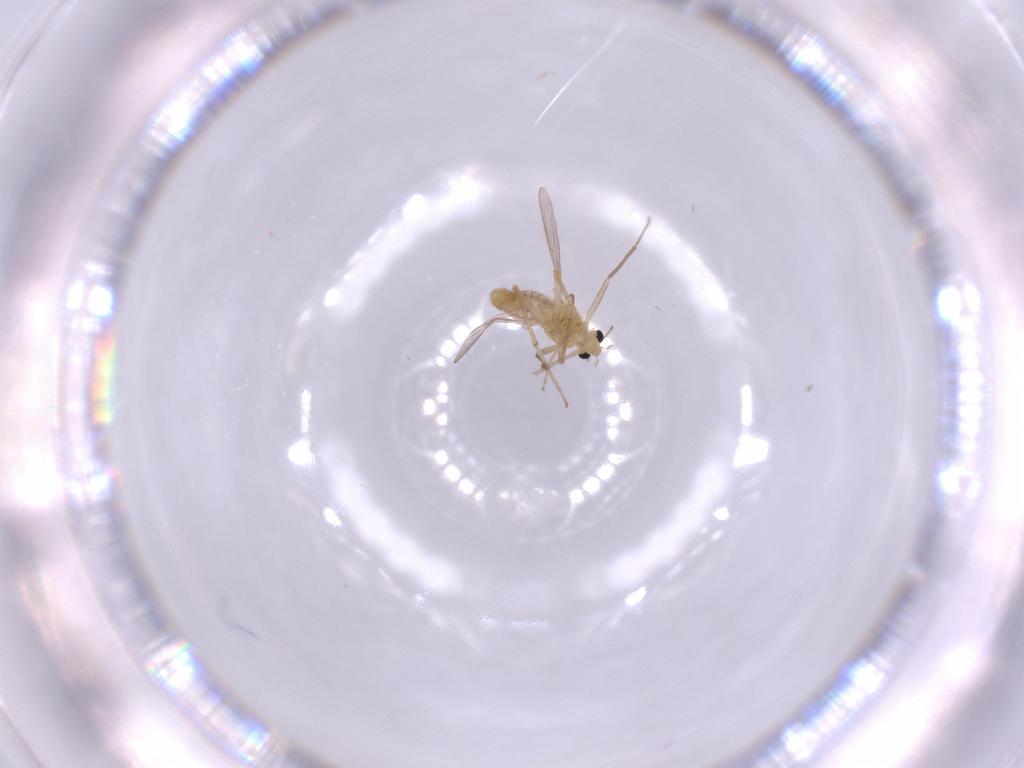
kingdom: Animalia
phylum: Arthropoda
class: Insecta
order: Diptera
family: Chironomidae
